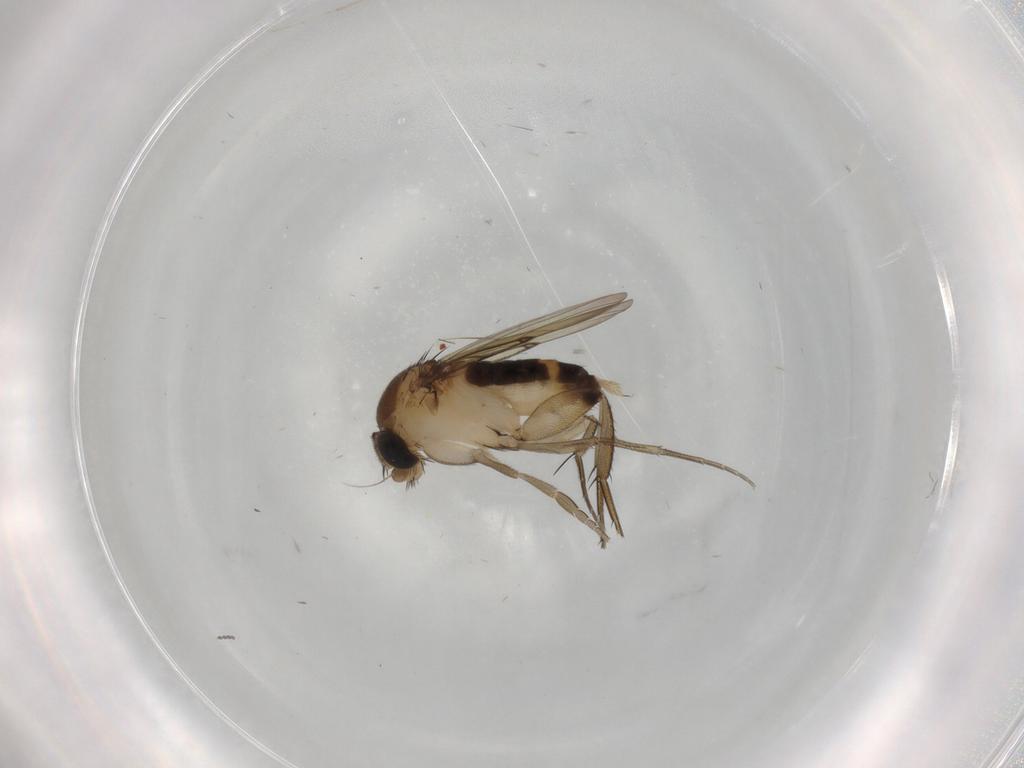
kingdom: Animalia
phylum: Arthropoda
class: Insecta
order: Diptera
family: Mycetophilidae
